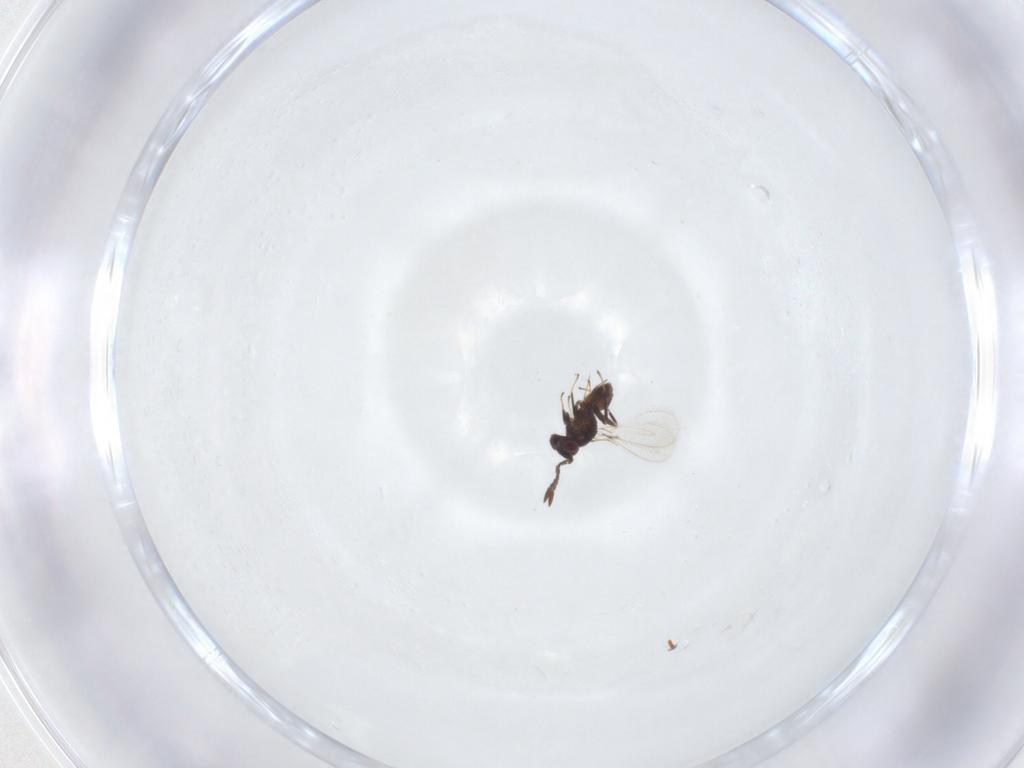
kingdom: Animalia
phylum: Arthropoda
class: Insecta
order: Hymenoptera
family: Mymaridae
